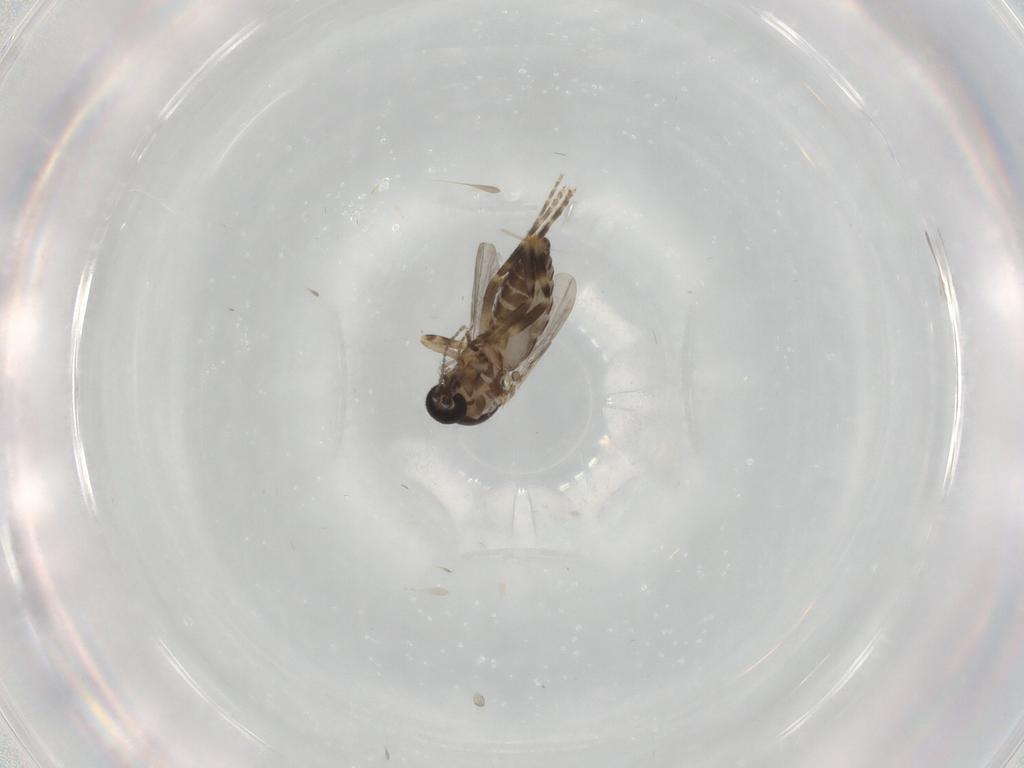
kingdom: Animalia
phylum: Arthropoda
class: Insecta
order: Diptera
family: Ceratopogonidae
